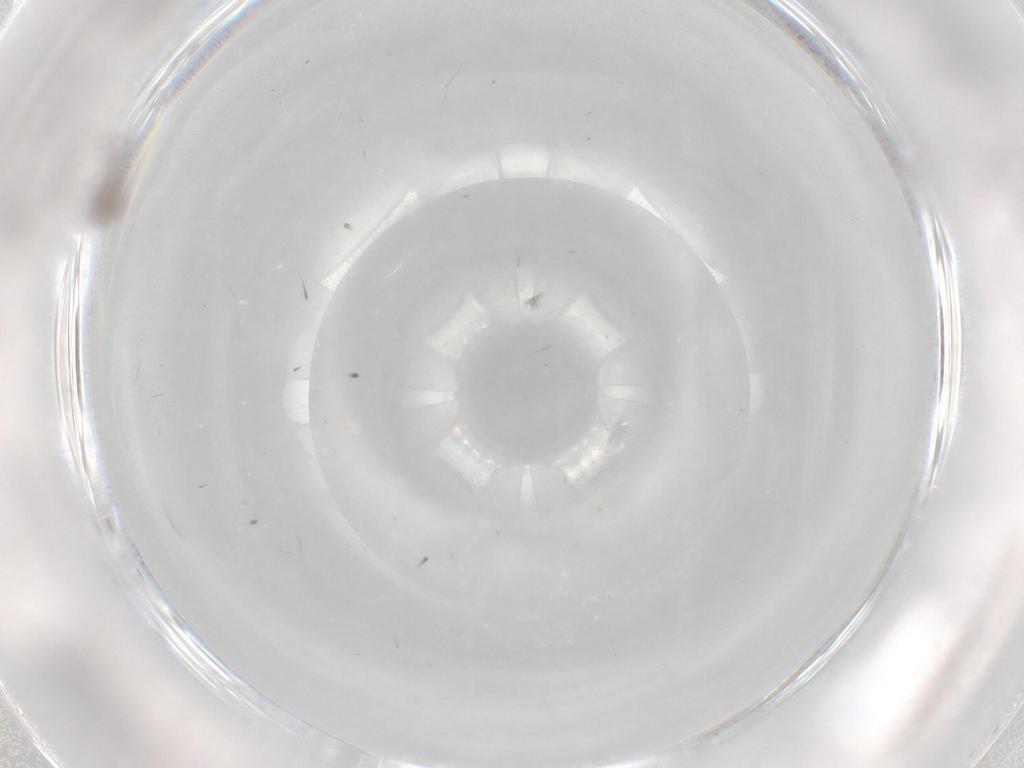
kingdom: Animalia
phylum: Arthropoda
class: Insecta
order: Diptera
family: Cecidomyiidae
